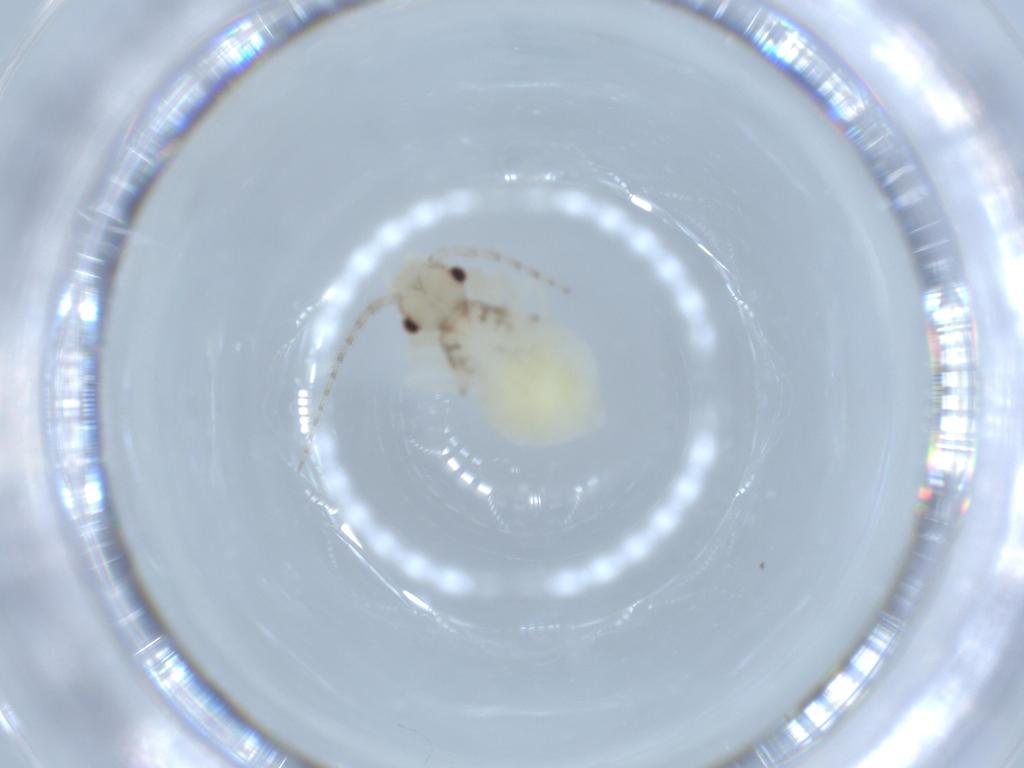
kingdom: Animalia
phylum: Arthropoda
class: Insecta
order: Psocodea
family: Amphipsocidae
